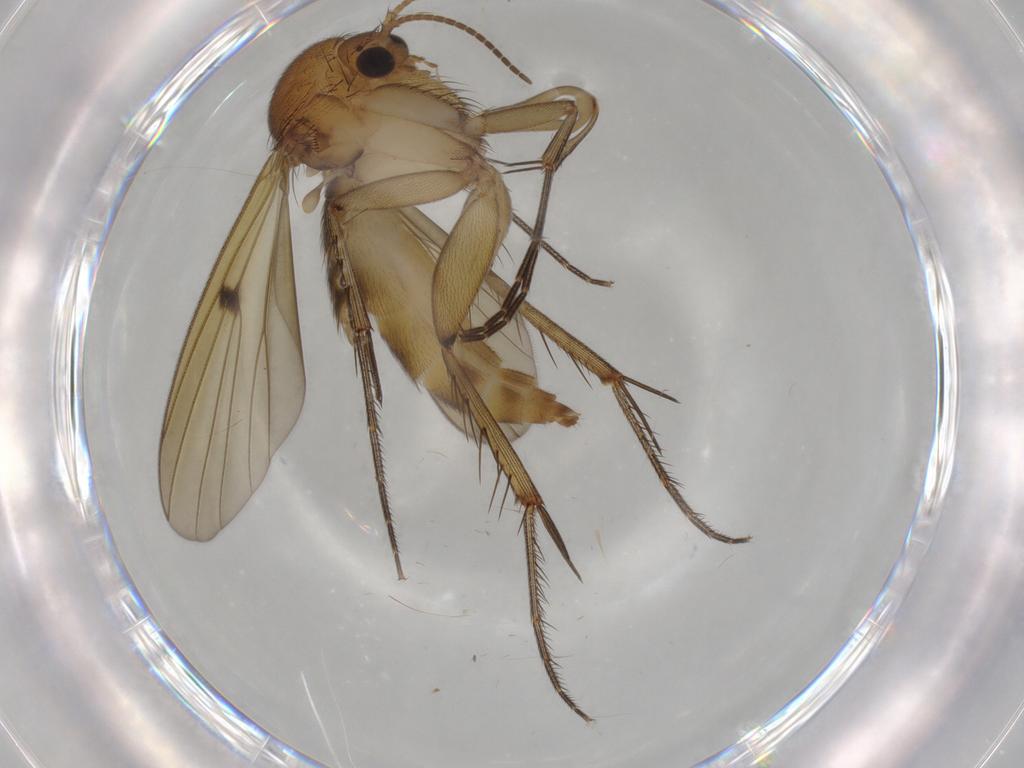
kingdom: Animalia
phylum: Arthropoda
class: Insecta
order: Diptera
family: Mycetophilidae
